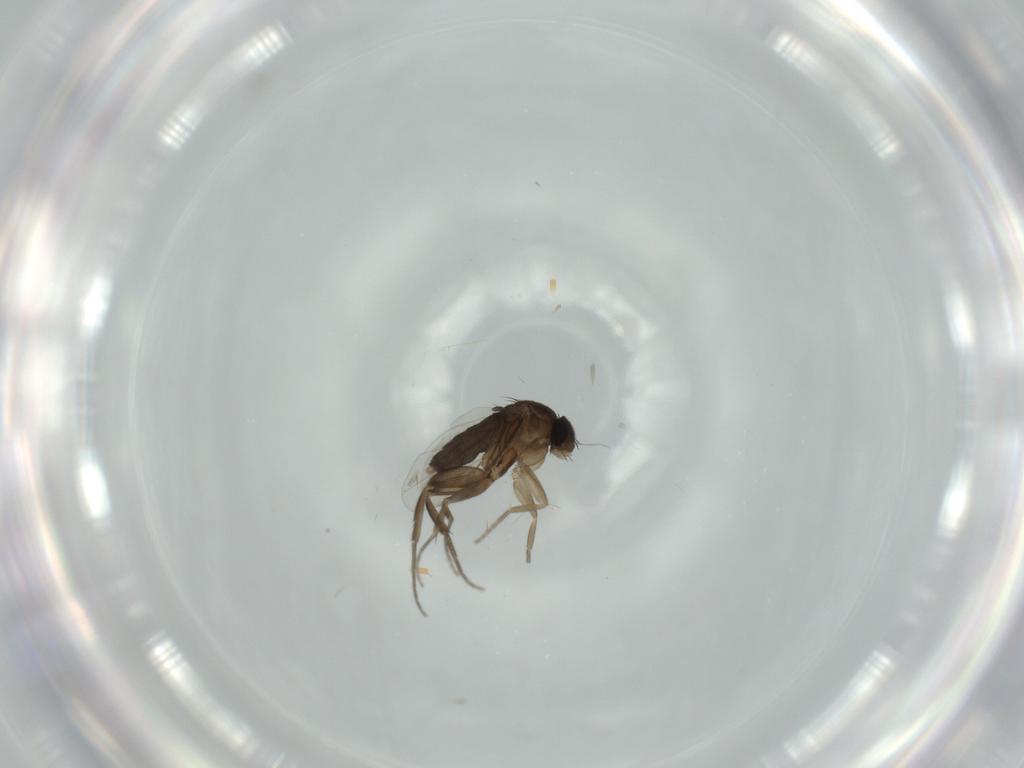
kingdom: Animalia
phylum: Arthropoda
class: Insecta
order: Diptera
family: Phoridae
